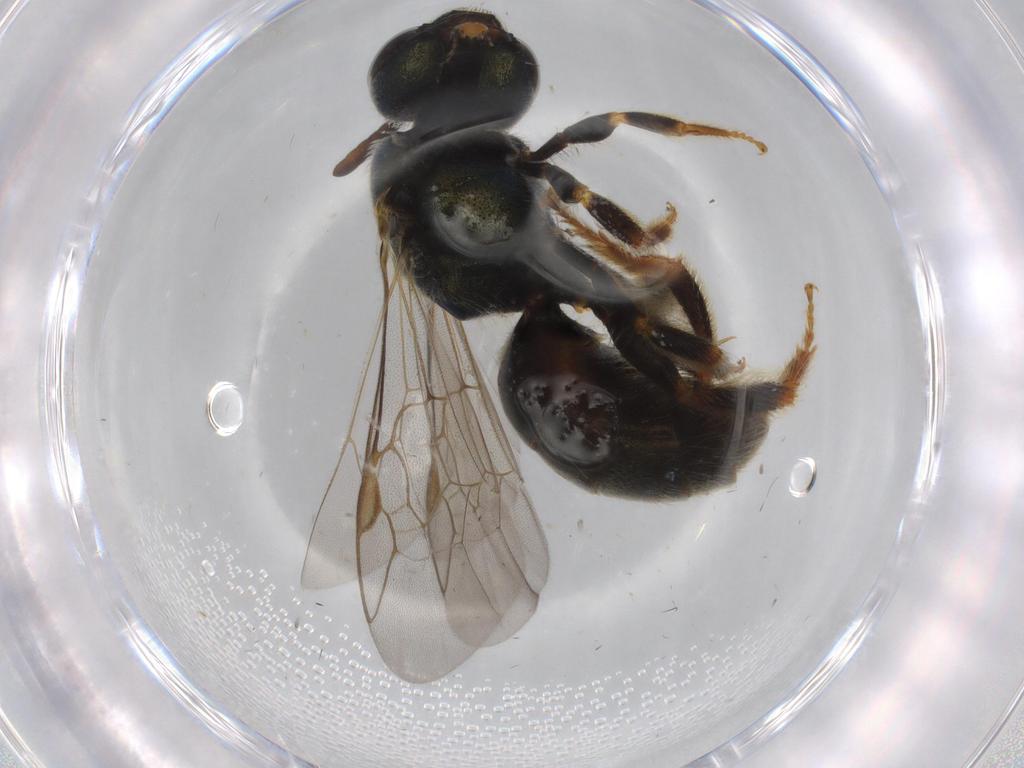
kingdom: Animalia
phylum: Arthropoda
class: Insecta
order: Hymenoptera
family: Halictidae
